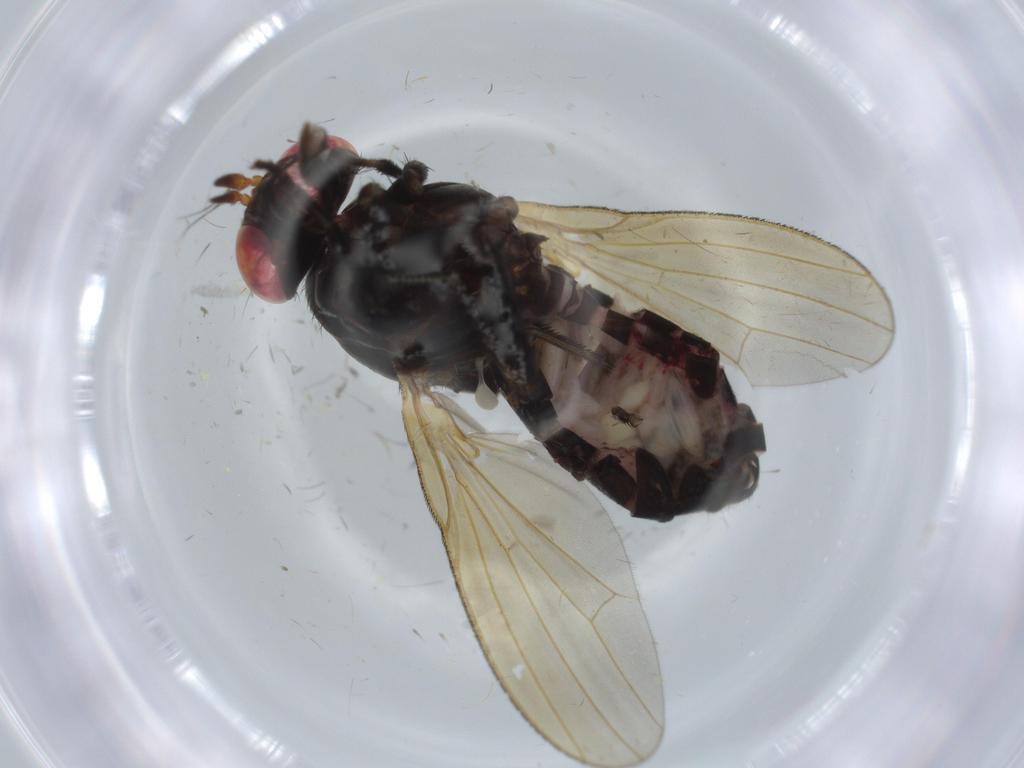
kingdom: Animalia
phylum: Arthropoda
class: Insecta
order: Diptera
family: Lauxaniidae
